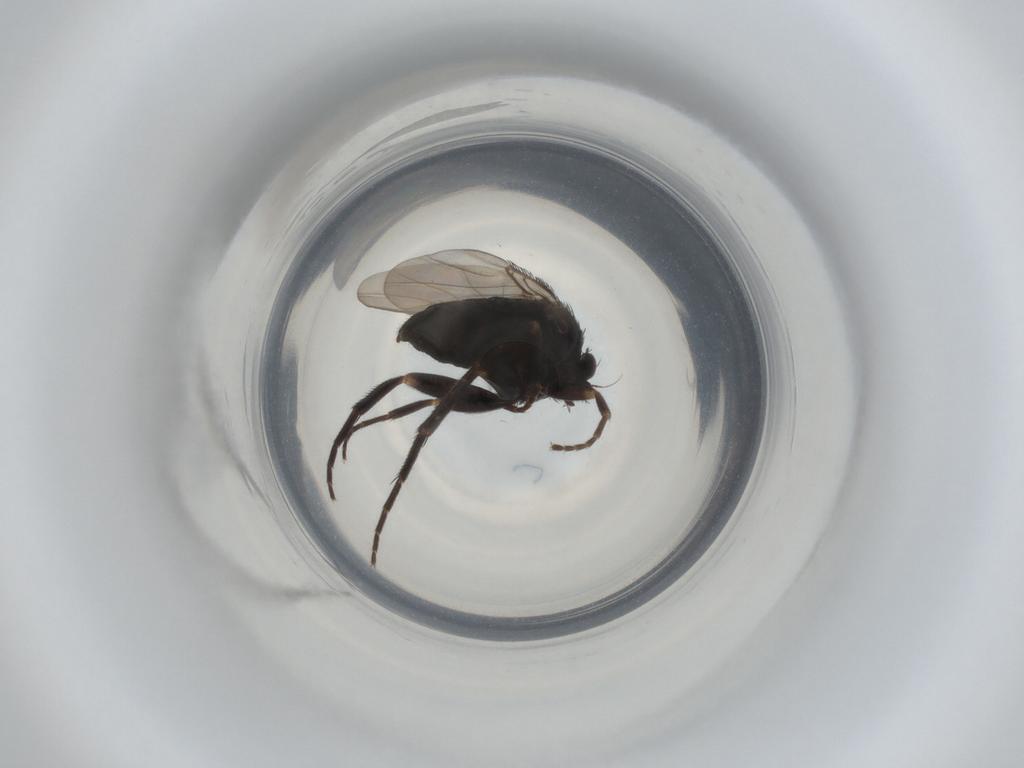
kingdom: Animalia
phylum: Arthropoda
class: Insecta
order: Diptera
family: Phoridae
